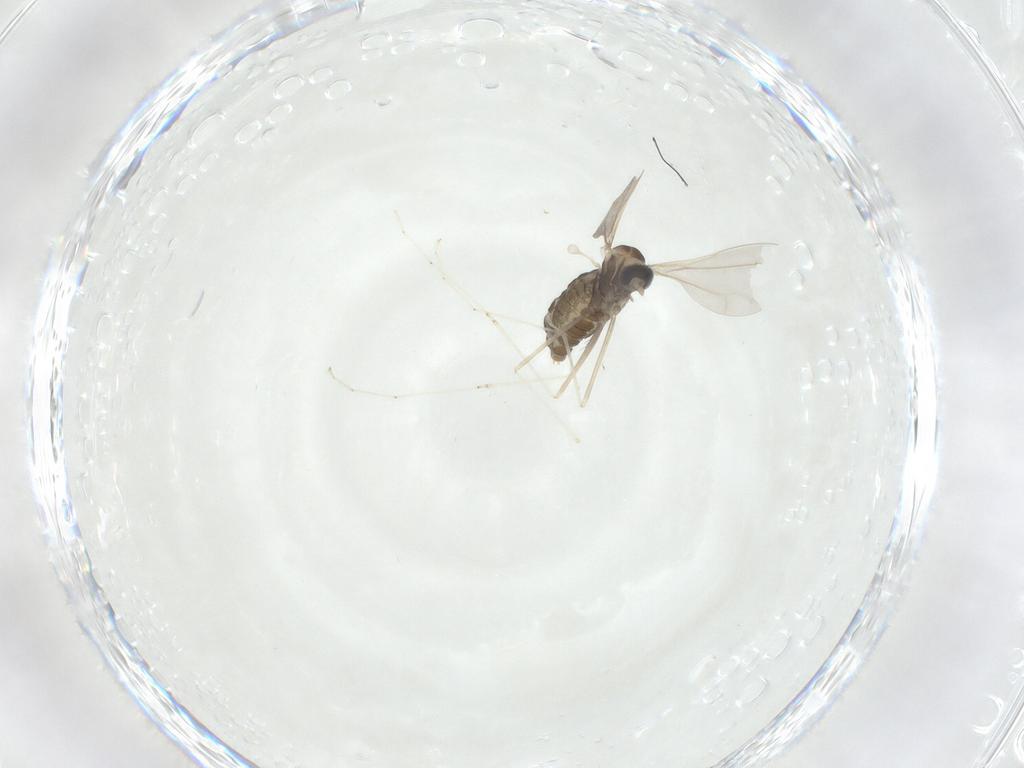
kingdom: Animalia
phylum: Arthropoda
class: Insecta
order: Diptera
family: Cecidomyiidae
